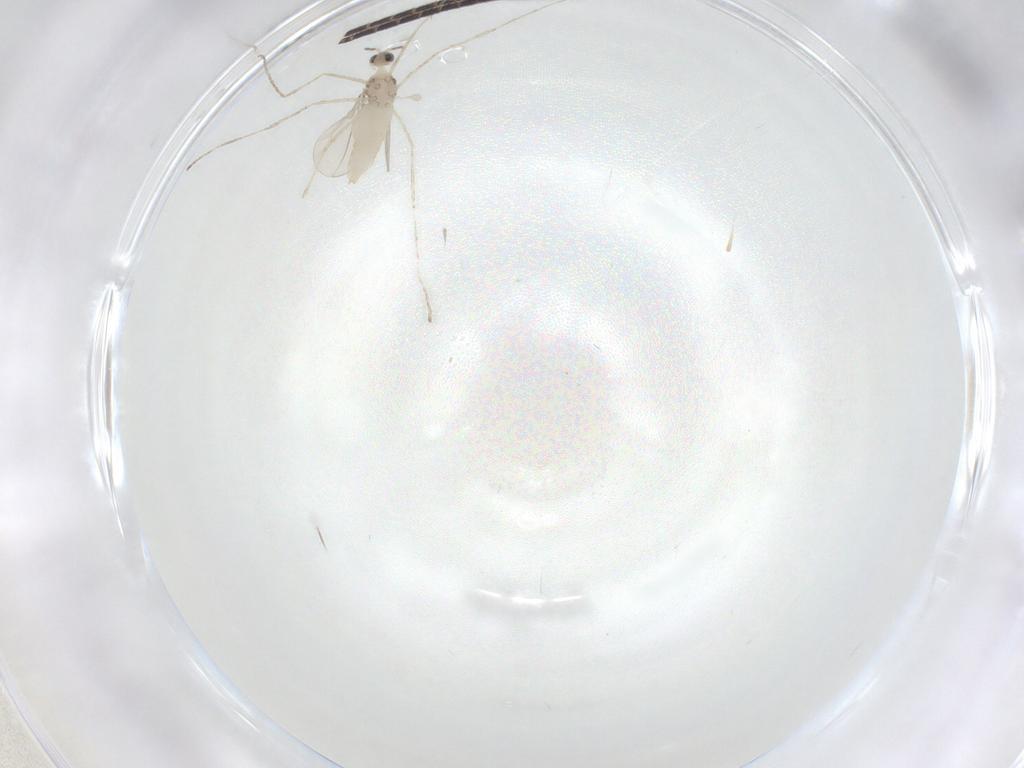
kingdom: Animalia
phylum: Arthropoda
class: Insecta
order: Diptera
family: Cecidomyiidae
